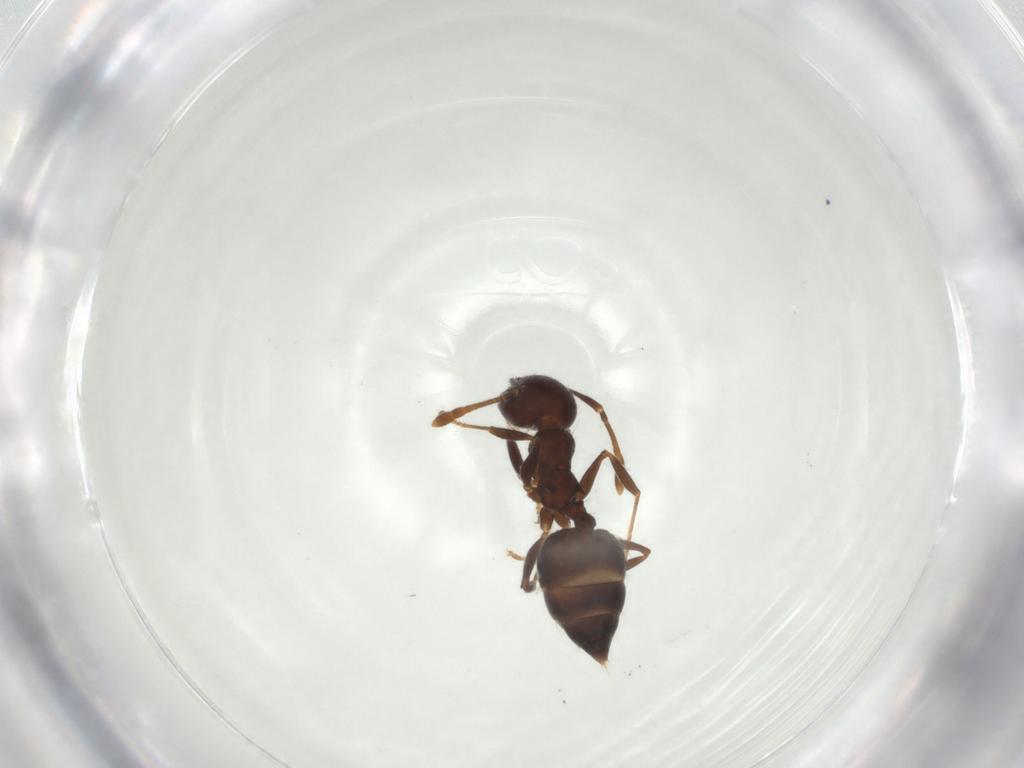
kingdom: Animalia
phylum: Arthropoda
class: Insecta
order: Hymenoptera
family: Formicidae
